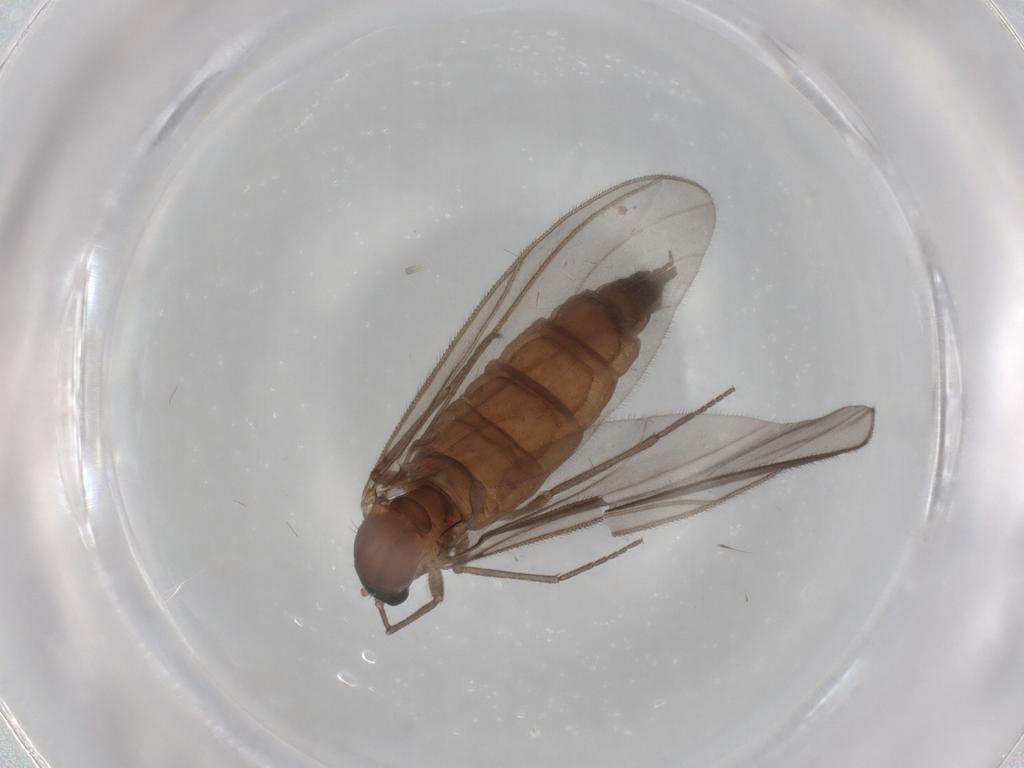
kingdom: Animalia
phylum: Arthropoda
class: Insecta
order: Diptera
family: Sciaridae
